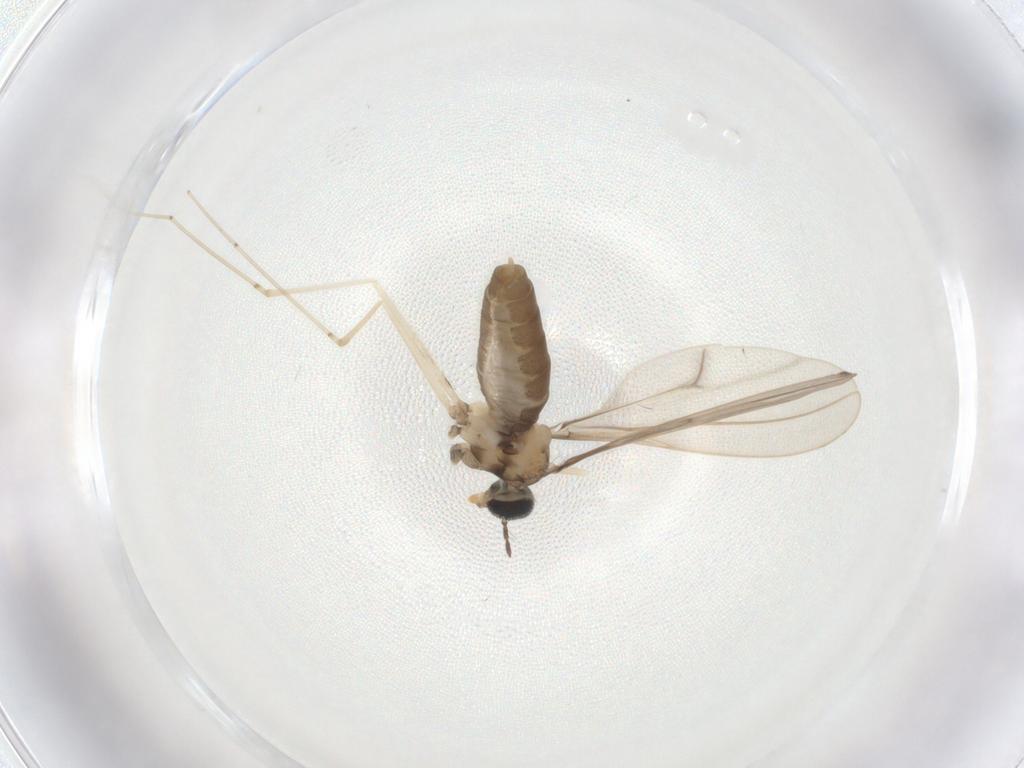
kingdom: Animalia
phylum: Arthropoda
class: Insecta
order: Diptera
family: Cecidomyiidae
